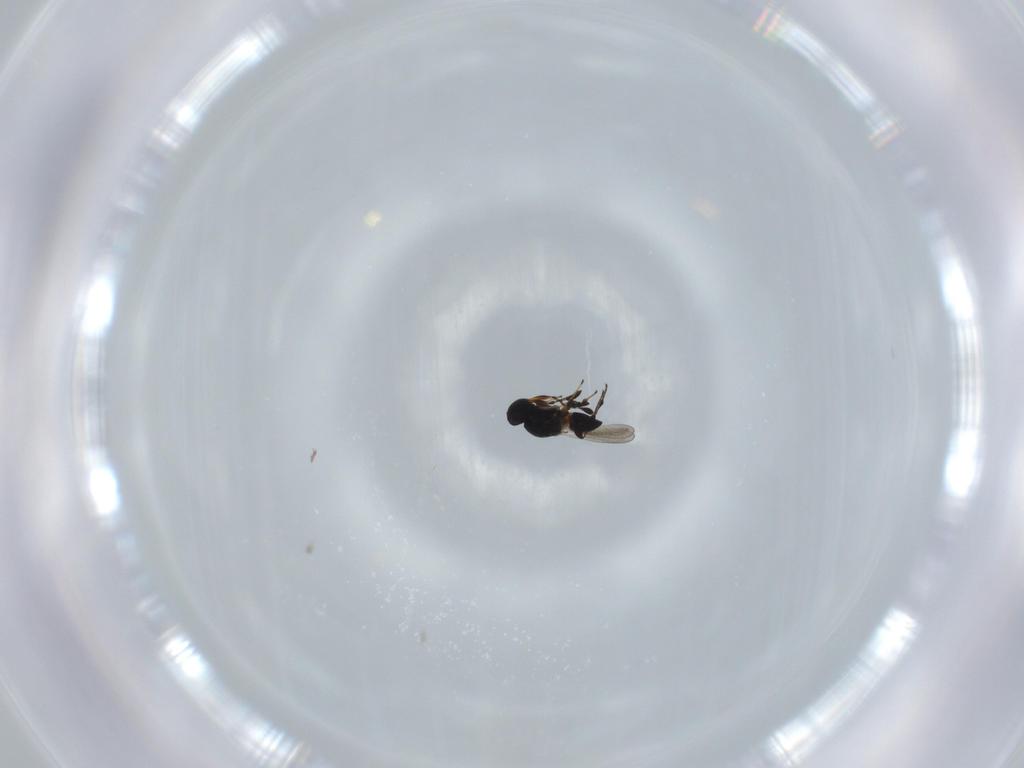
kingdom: Animalia
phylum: Arthropoda
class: Insecta
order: Hymenoptera
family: Platygastridae
